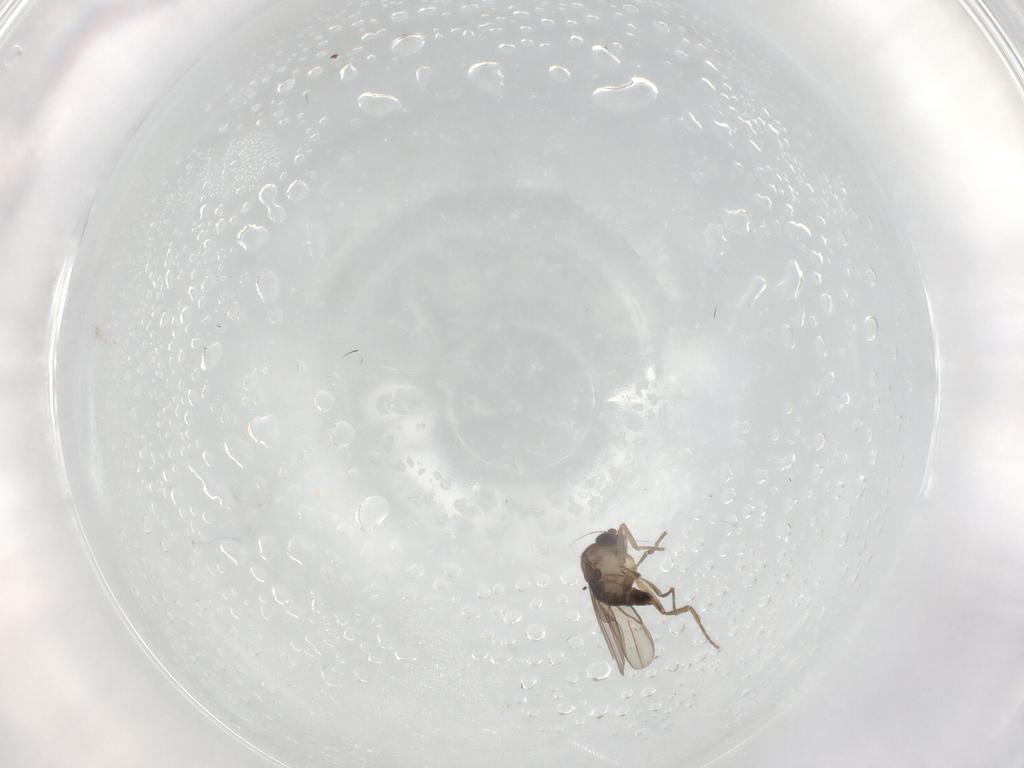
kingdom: Animalia
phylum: Arthropoda
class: Insecta
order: Diptera
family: Phoridae
